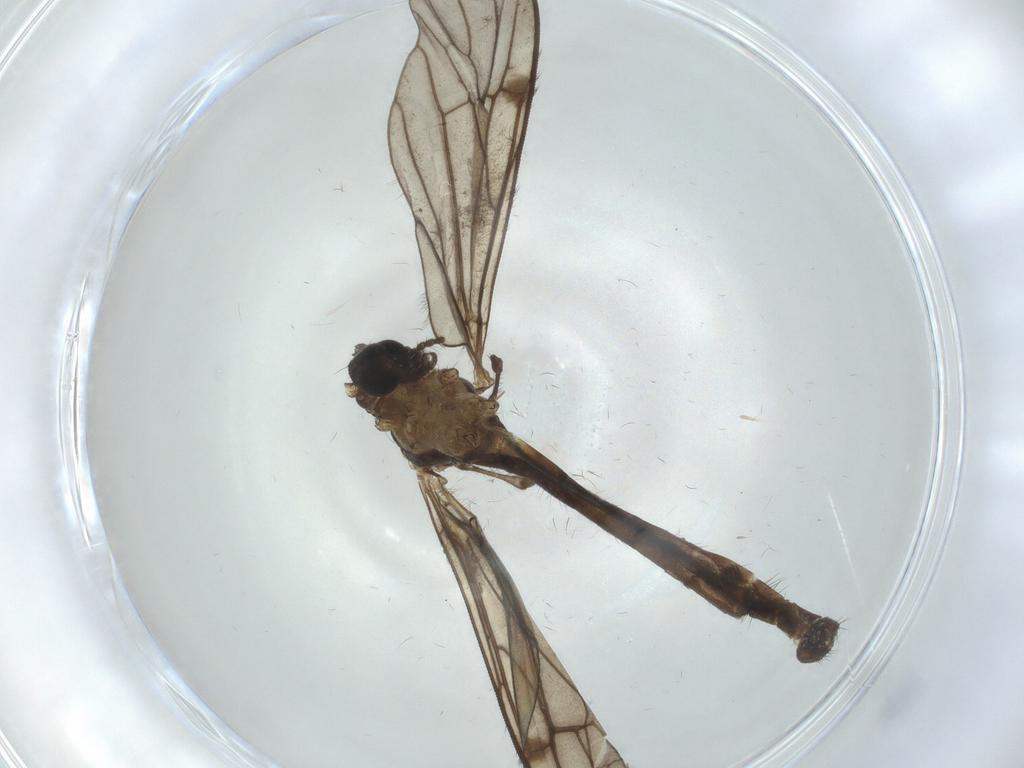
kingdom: Animalia
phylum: Arthropoda
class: Insecta
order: Diptera
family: Limoniidae
